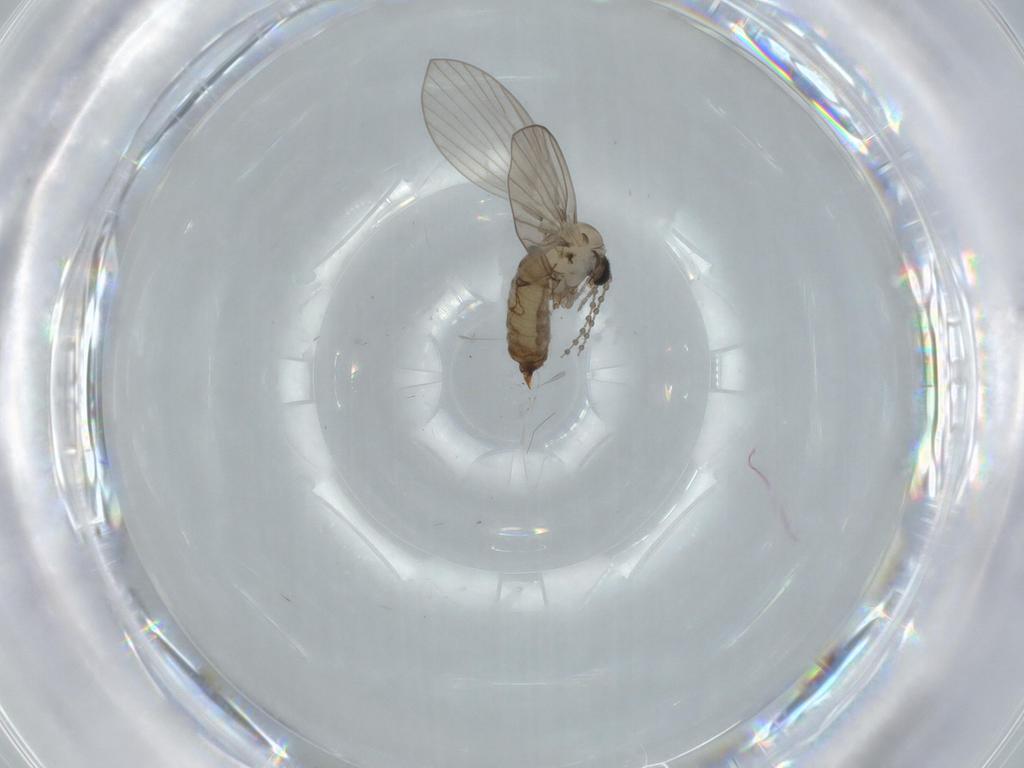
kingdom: Animalia
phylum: Arthropoda
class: Insecta
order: Diptera
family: Psychodidae
